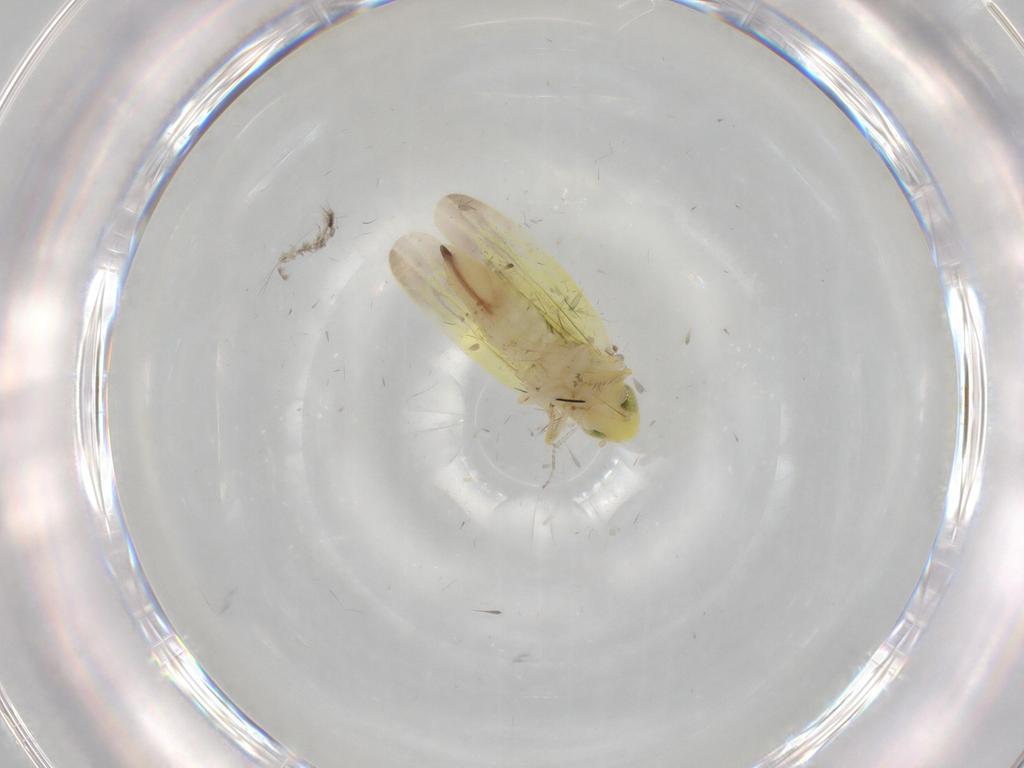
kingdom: Animalia
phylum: Arthropoda
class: Insecta
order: Hemiptera
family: Cicadellidae
